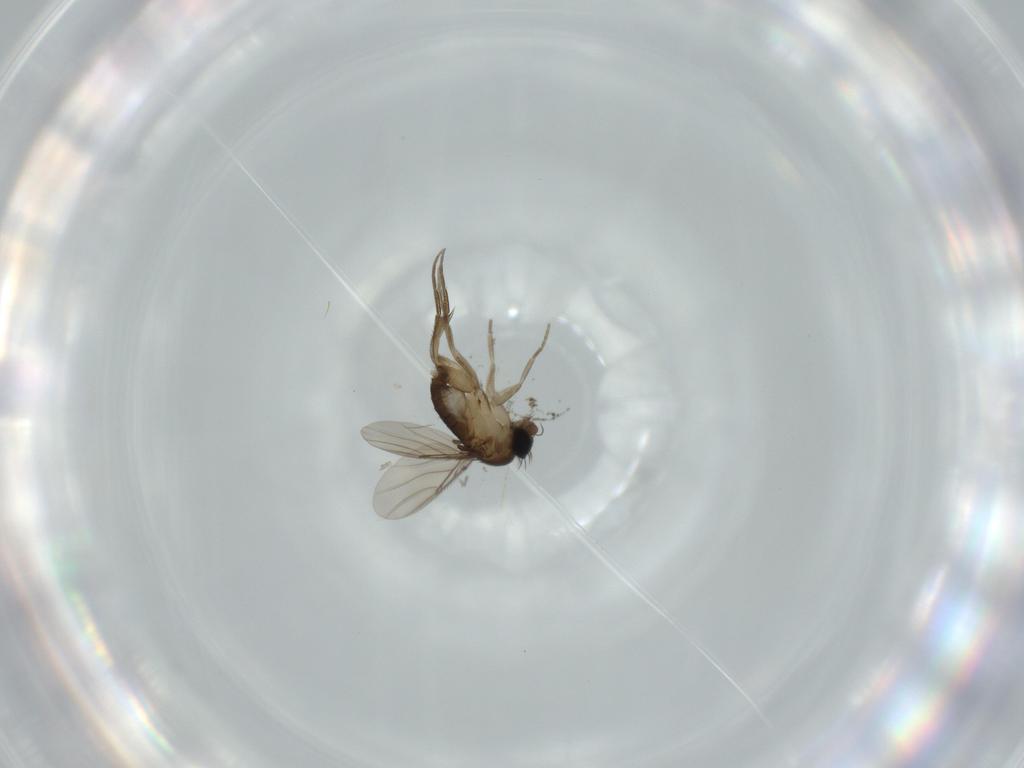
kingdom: Animalia
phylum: Arthropoda
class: Insecta
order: Diptera
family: Phoridae
